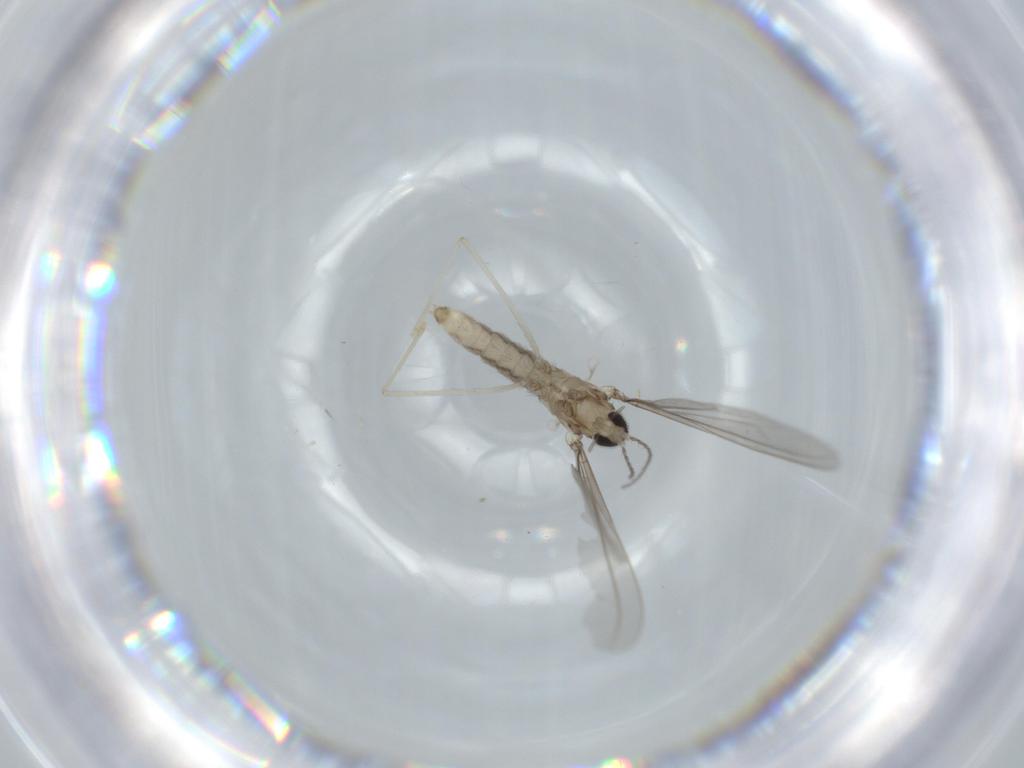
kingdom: Animalia
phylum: Arthropoda
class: Insecta
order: Diptera
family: Cecidomyiidae
